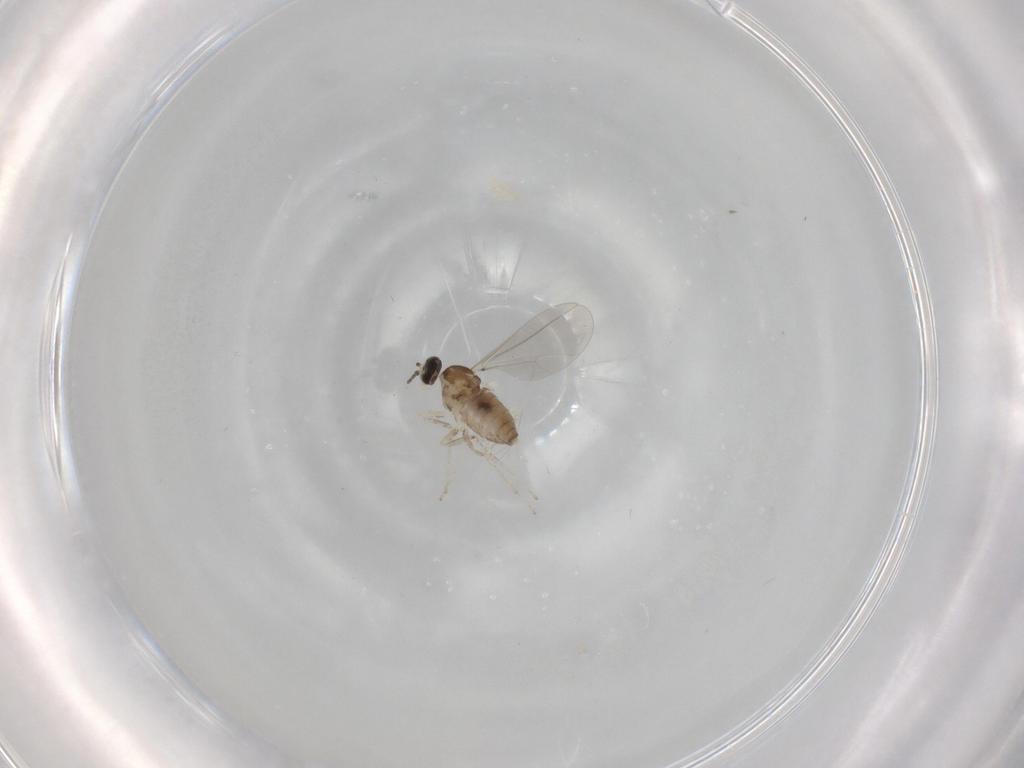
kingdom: Animalia
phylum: Arthropoda
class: Insecta
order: Diptera
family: Cecidomyiidae
